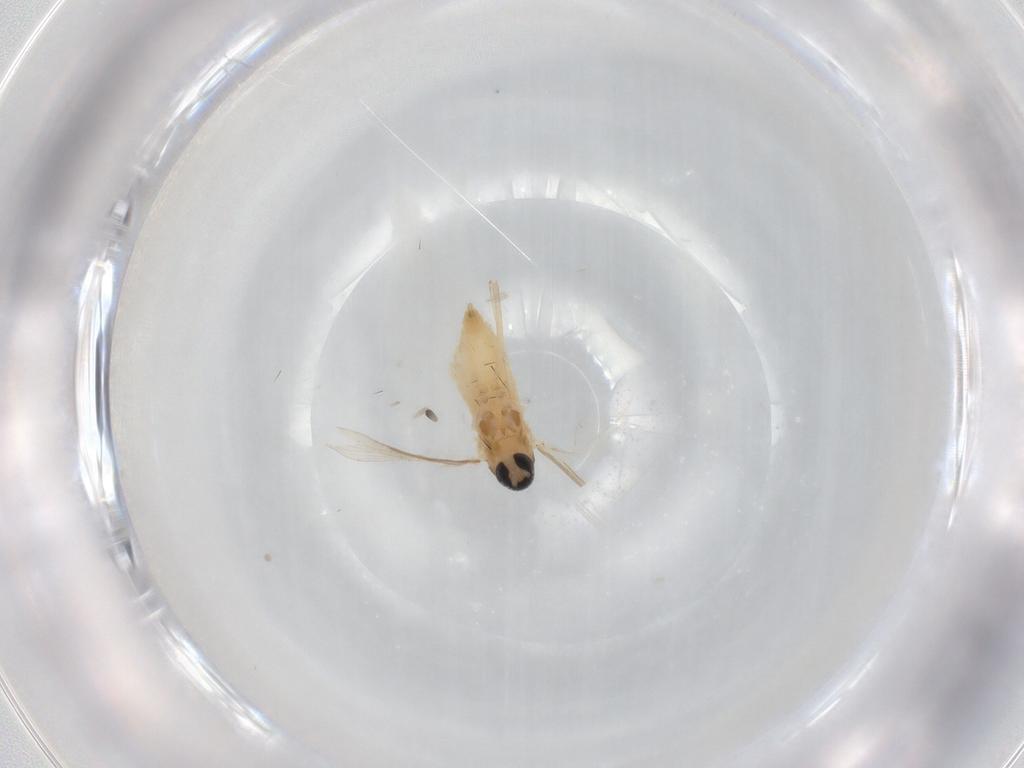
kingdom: Animalia
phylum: Arthropoda
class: Insecta
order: Diptera
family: Cecidomyiidae
